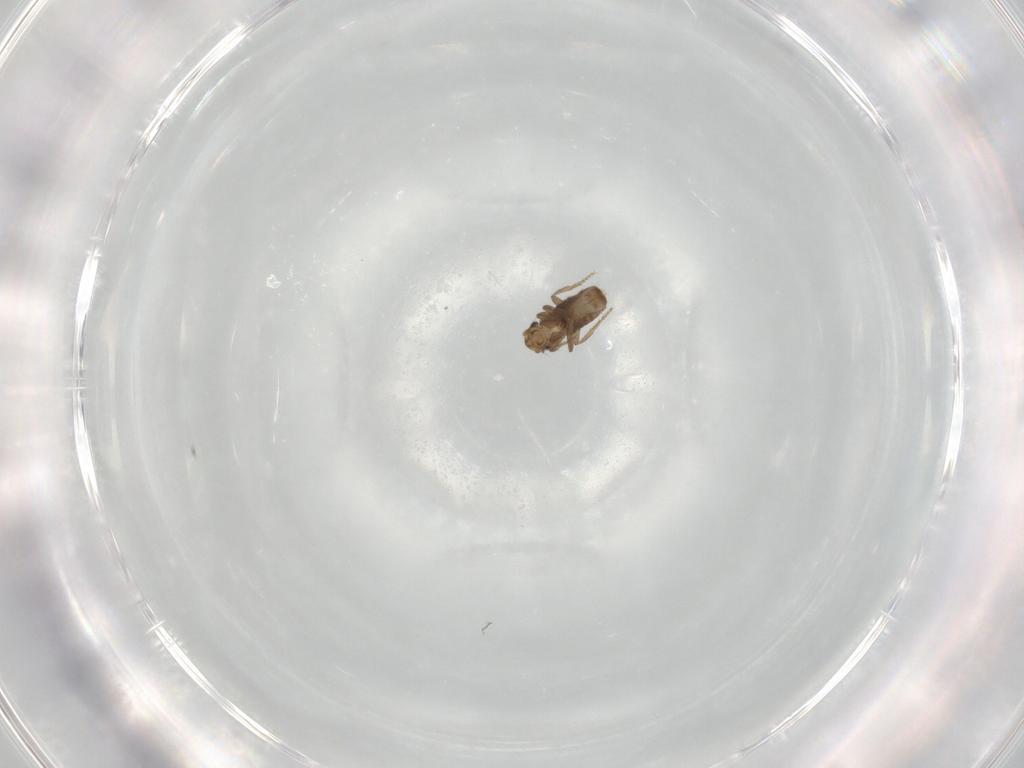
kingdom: Animalia
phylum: Arthropoda
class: Insecta
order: Diptera
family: Phoridae
